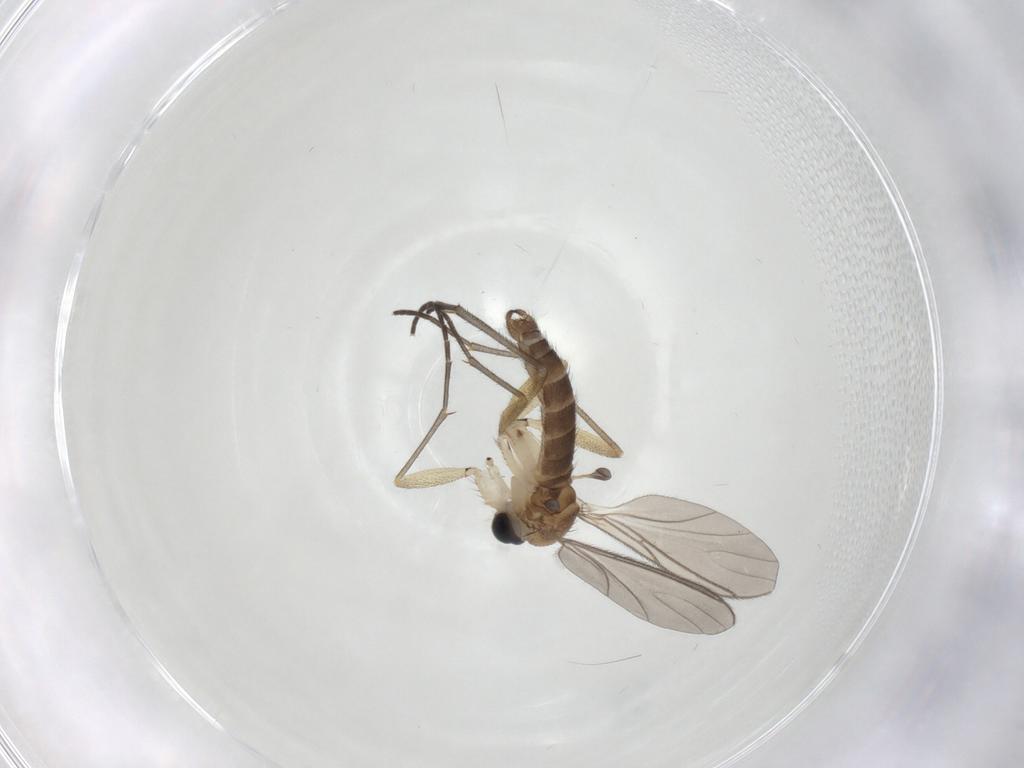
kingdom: Animalia
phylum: Arthropoda
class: Insecta
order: Diptera
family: Sciaridae
